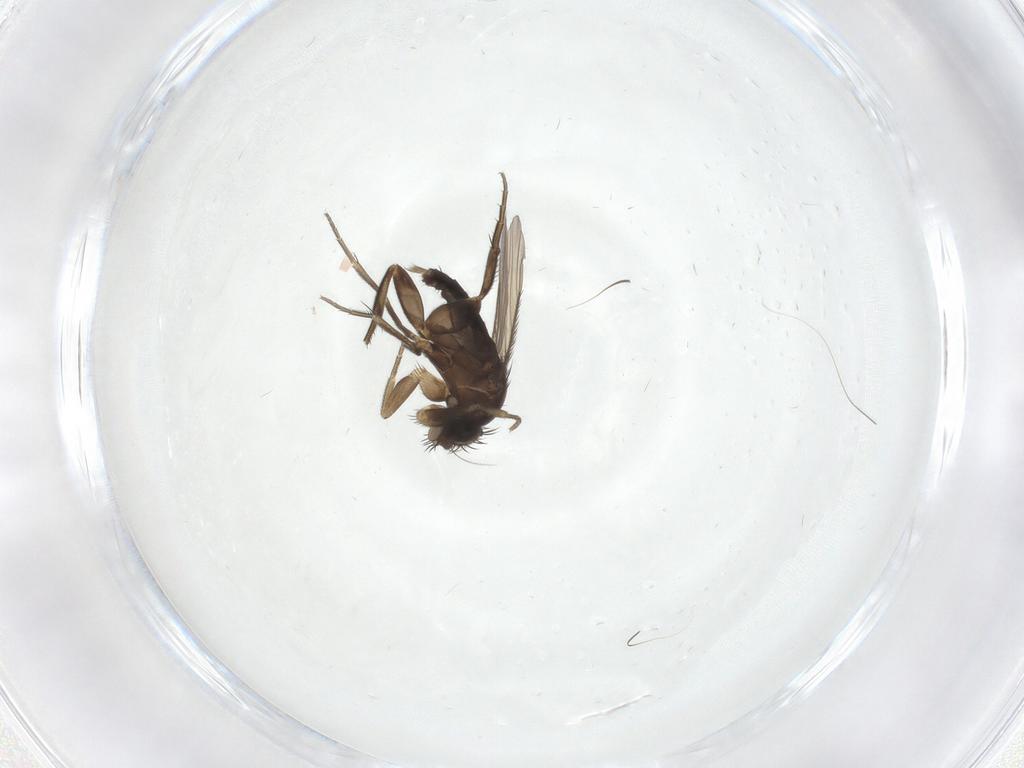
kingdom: Animalia
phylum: Arthropoda
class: Insecta
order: Diptera
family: Phoridae
